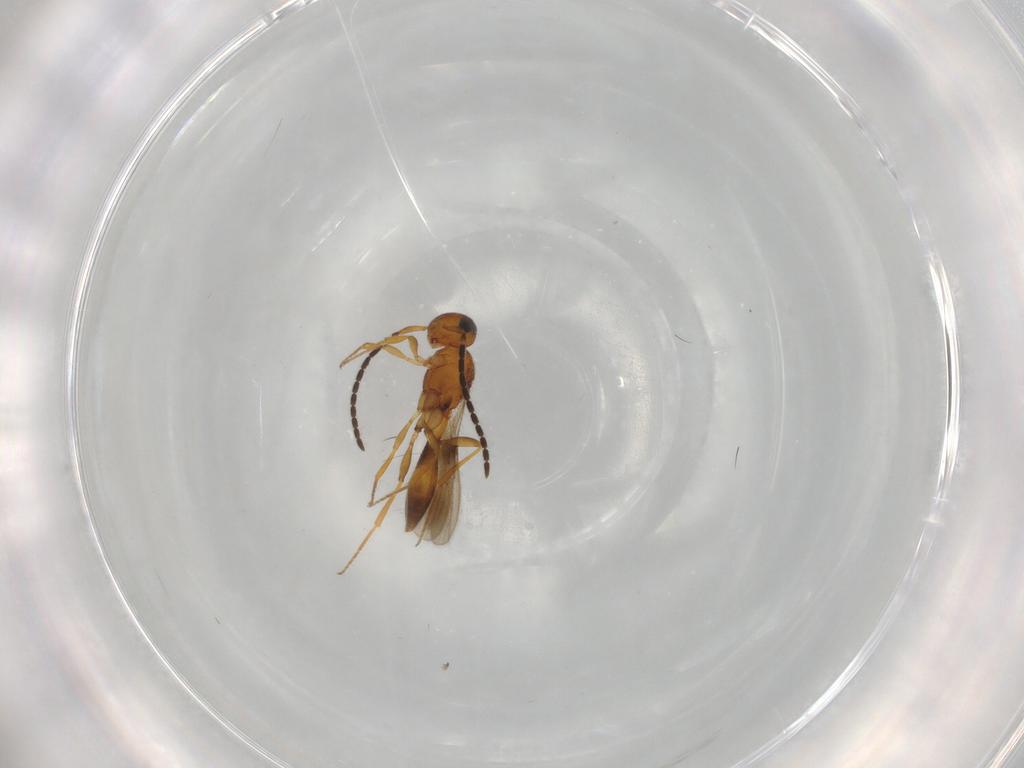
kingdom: Animalia
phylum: Arthropoda
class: Insecta
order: Hymenoptera
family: Scelionidae
